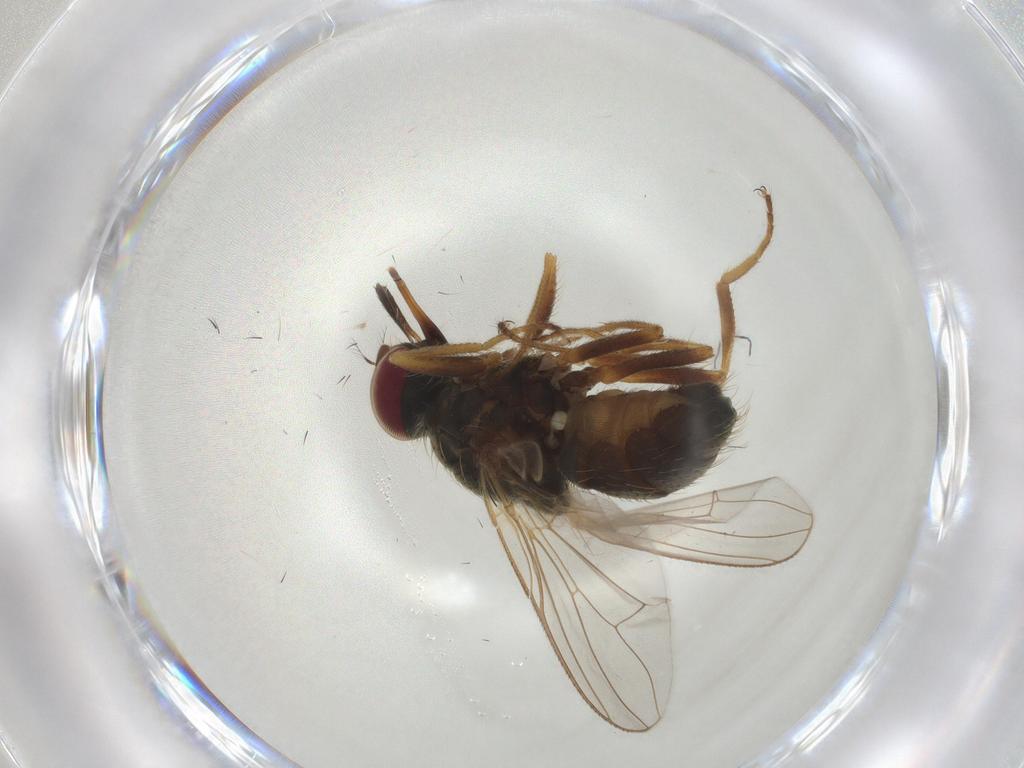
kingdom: Animalia
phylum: Arthropoda
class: Insecta
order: Diptera
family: Muscidae
